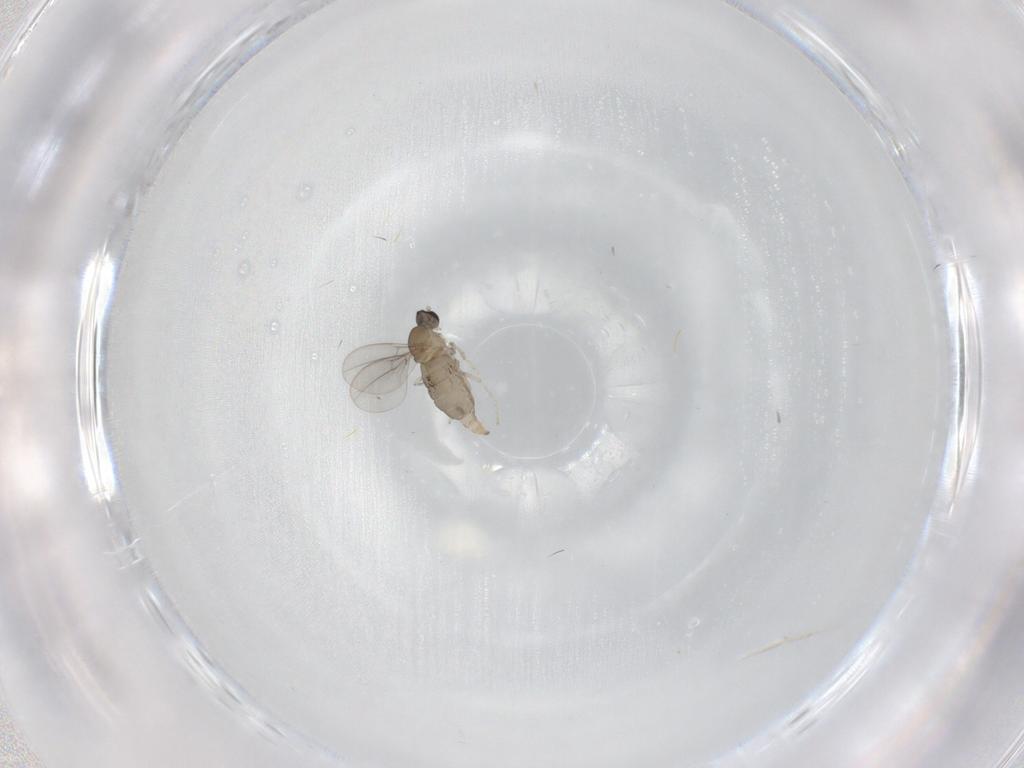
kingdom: Animalia
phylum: Arthropoda
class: Insecta
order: Diptera
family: Cecidomyiidae
